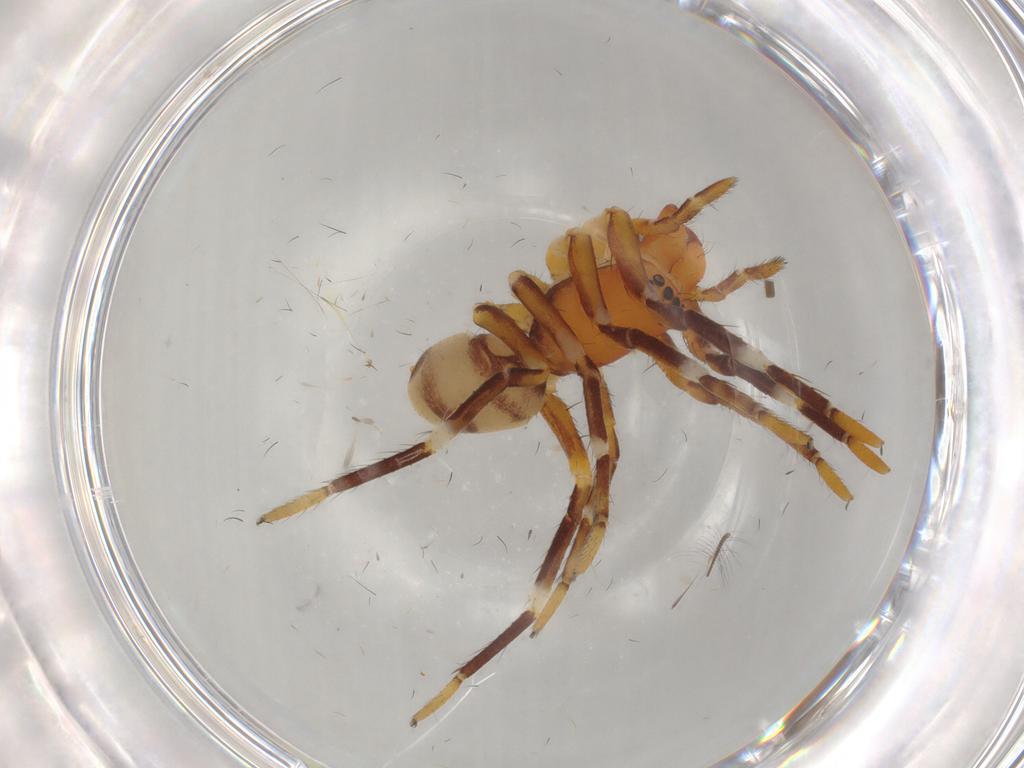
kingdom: Animalia
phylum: Arthropoda
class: Arachnida
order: Araneae
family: Corinnidae
